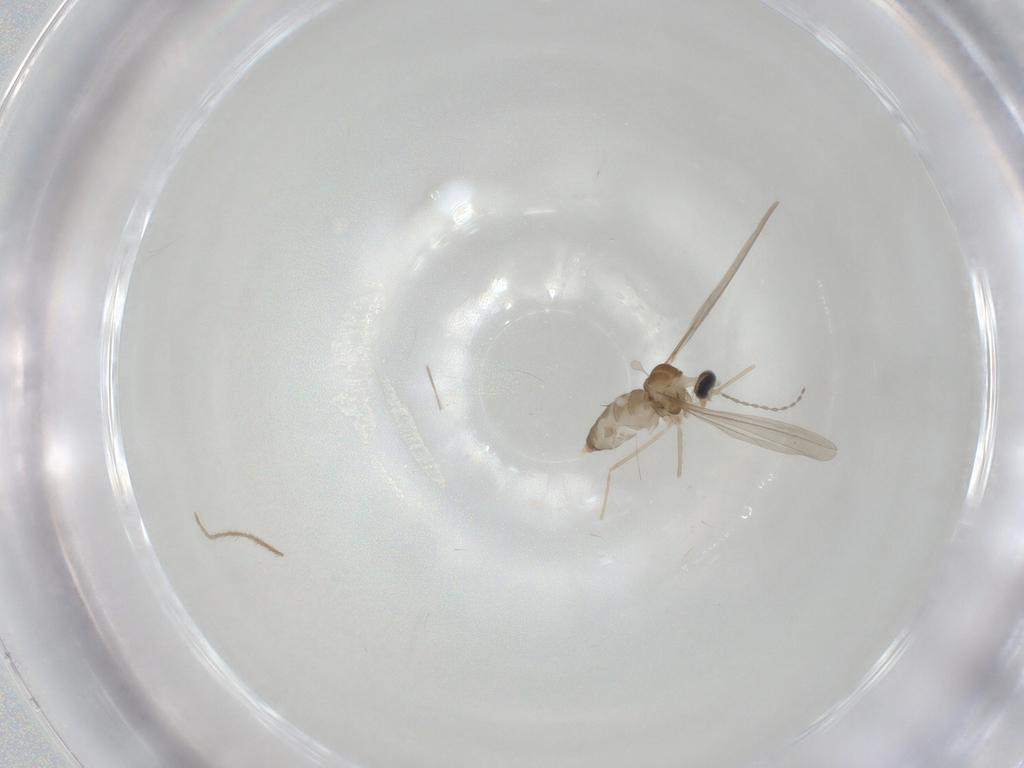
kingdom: Animalia
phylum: Arthropoda
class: Insecta
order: Diptera
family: Cecidomyiidae
